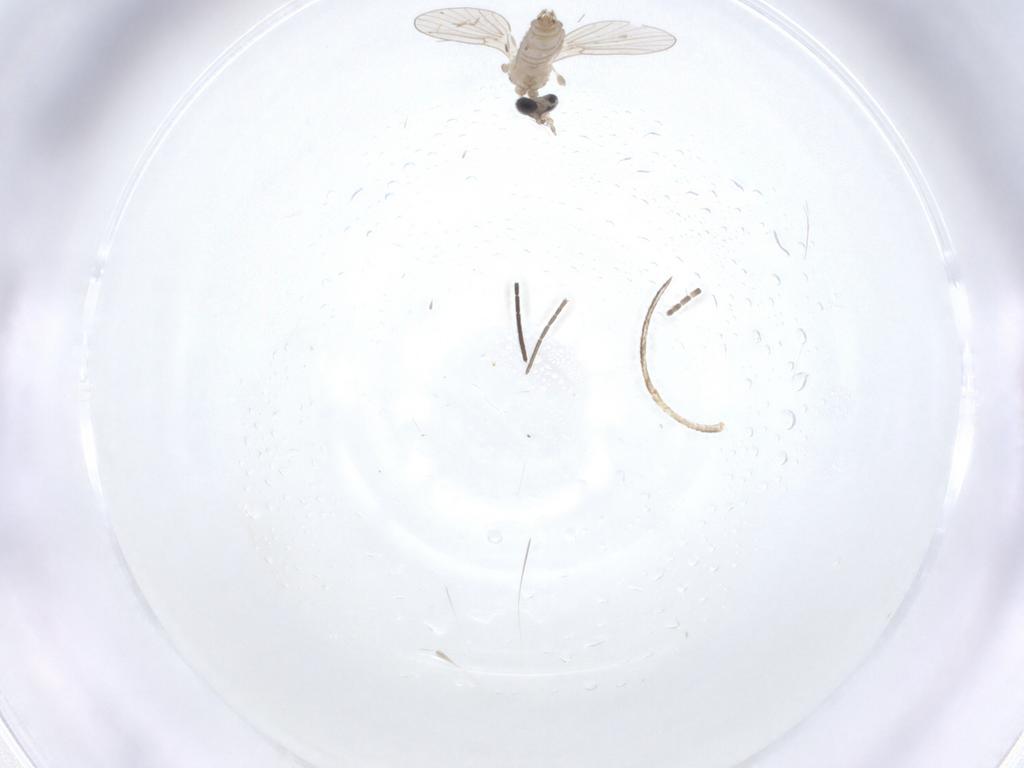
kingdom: Animalia
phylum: Arthropoda
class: Insecta
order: Diptera
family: Psychodidae
